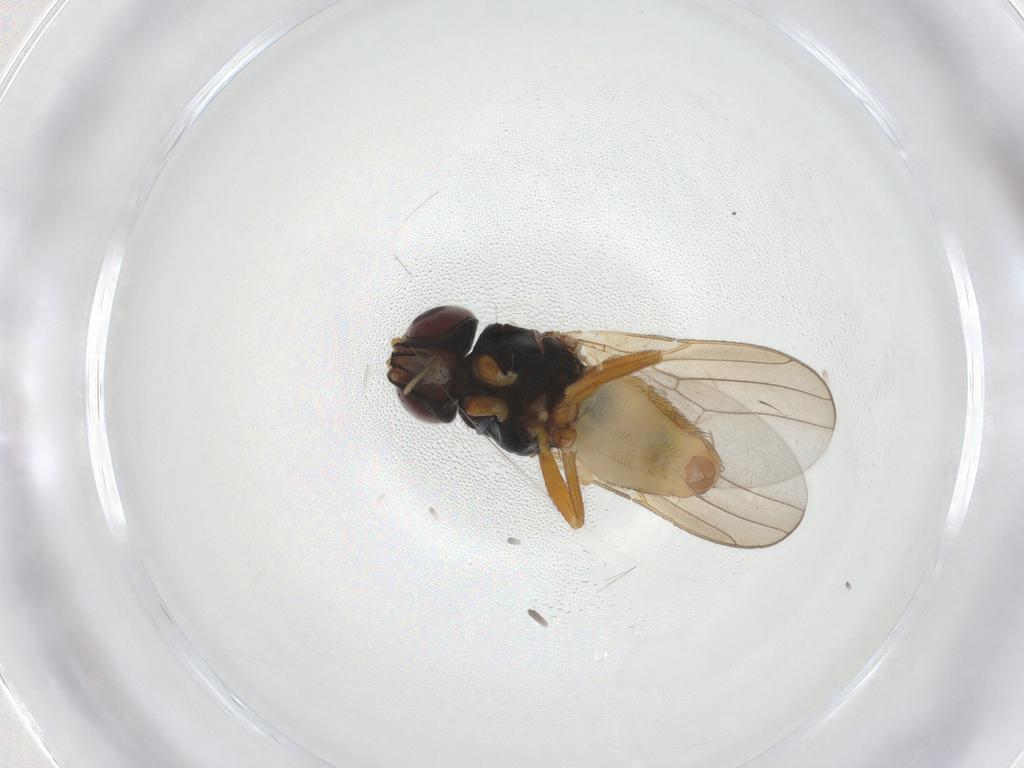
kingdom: Animalia
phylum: Arthropoda
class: Insecta
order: Diptera
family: Chloropidae
